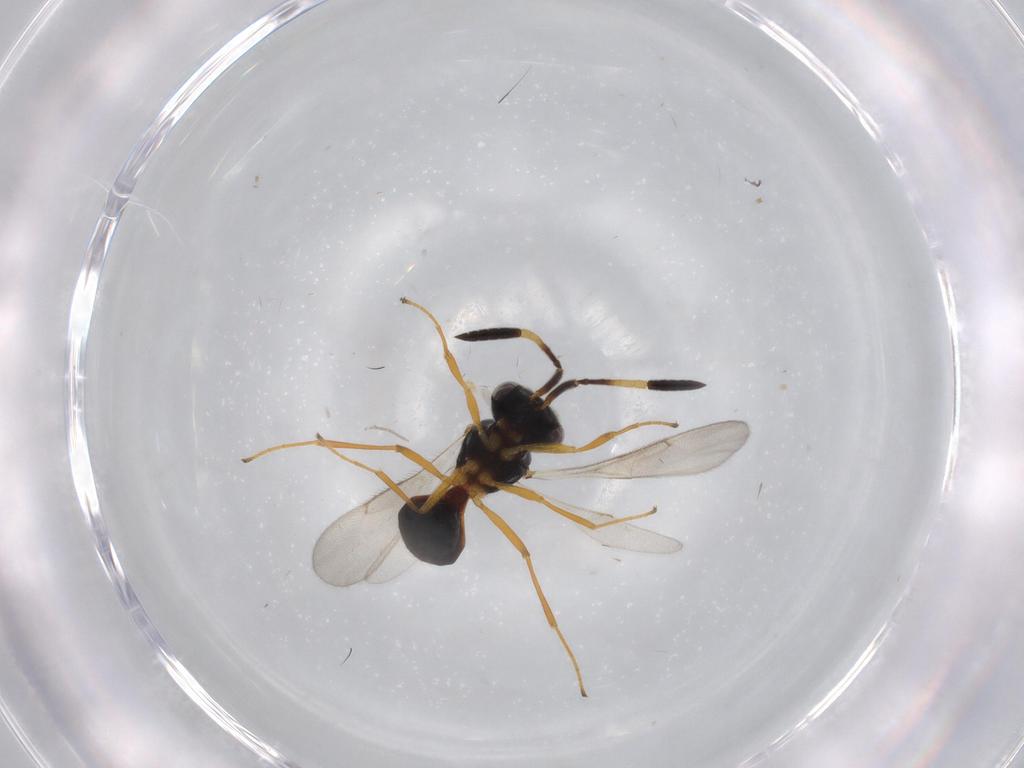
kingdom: Animalia
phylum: Arthropoda
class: Insecta
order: Hymenoptera
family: Scelionidae
